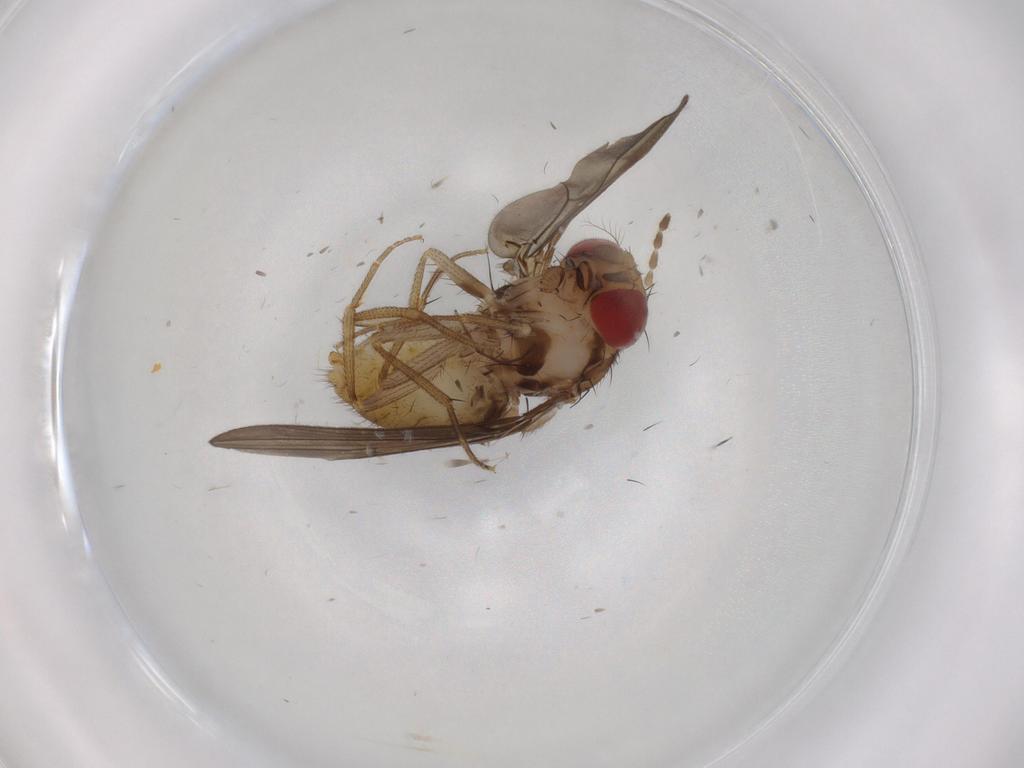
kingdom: Animalia
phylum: Arthropoda
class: Insecta
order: Diptera
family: Drosophilidae
